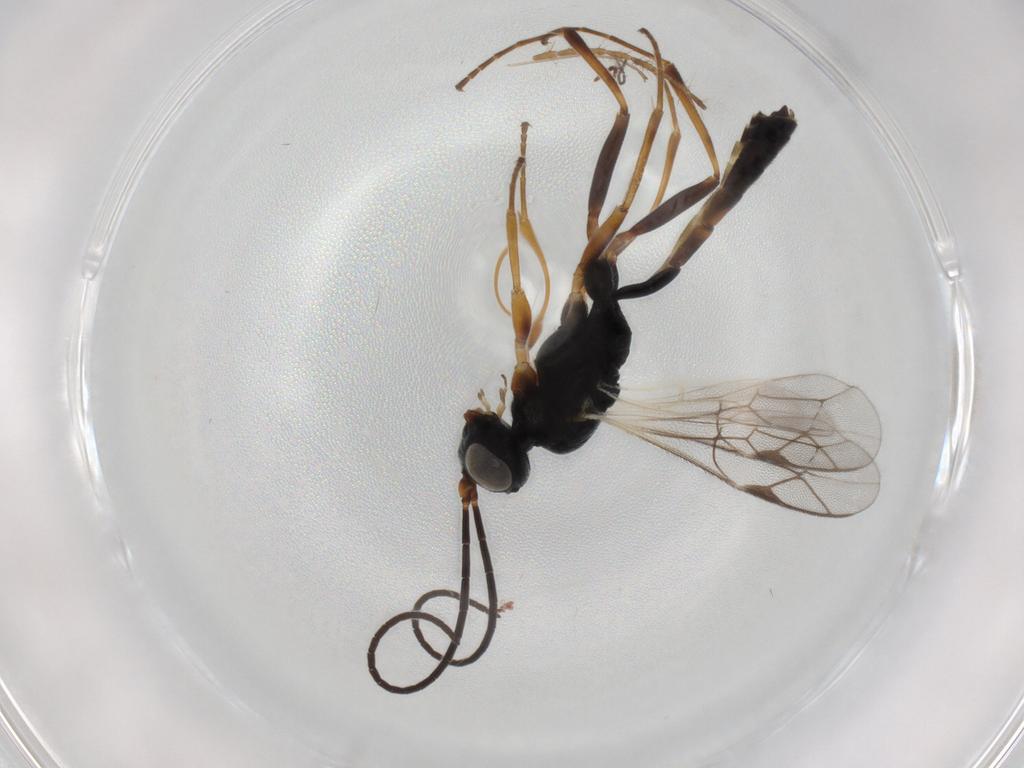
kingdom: Animalia
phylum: Arthropoda
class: Insecta
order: Hymenoptera
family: Ichneumonidae
